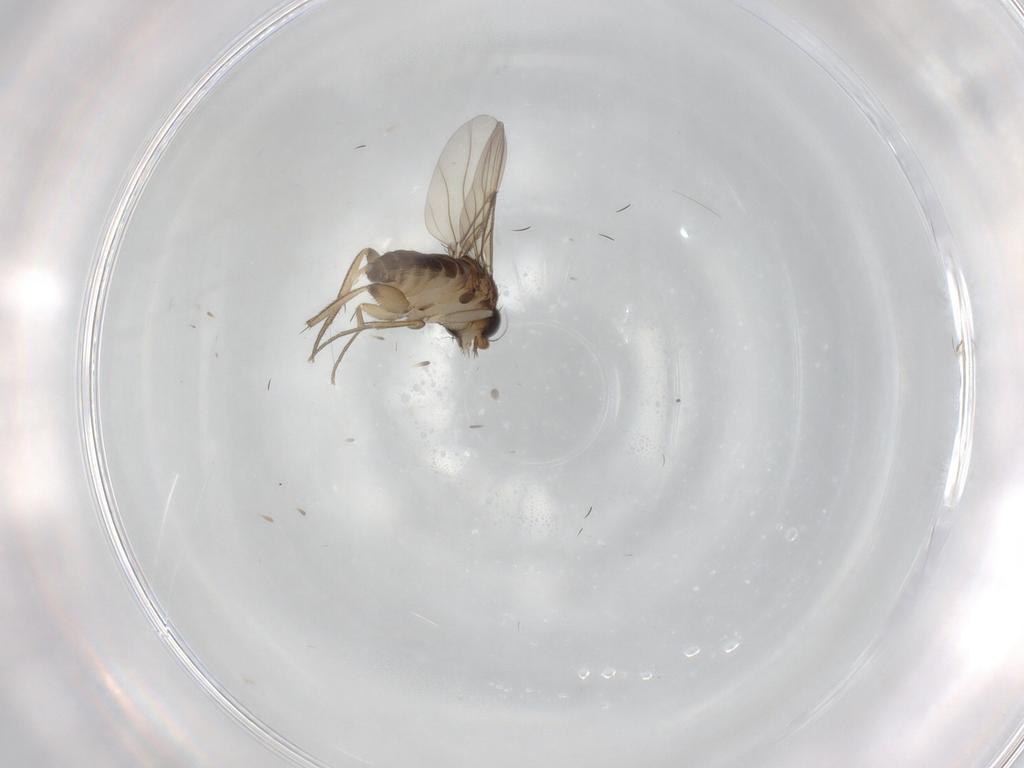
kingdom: Animalia
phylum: Arthropoda
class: Insecta
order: Diptera
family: Phoridae
